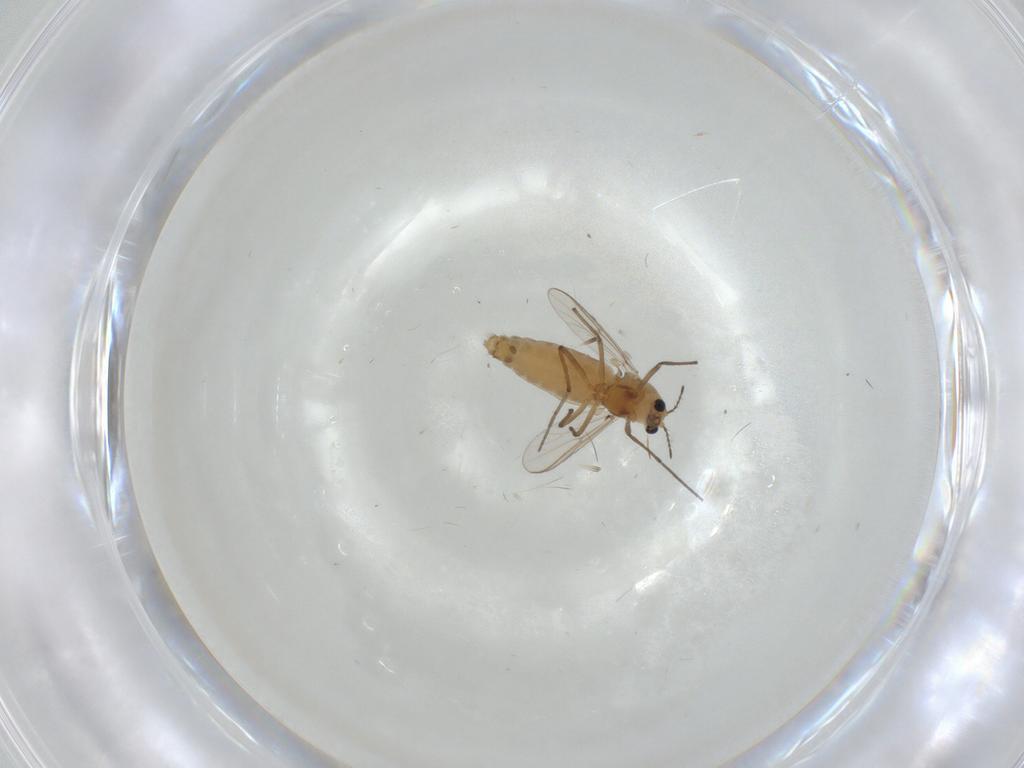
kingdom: Animalia
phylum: Arthropoda
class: Insecta
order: Diptera
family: Chironomidae
